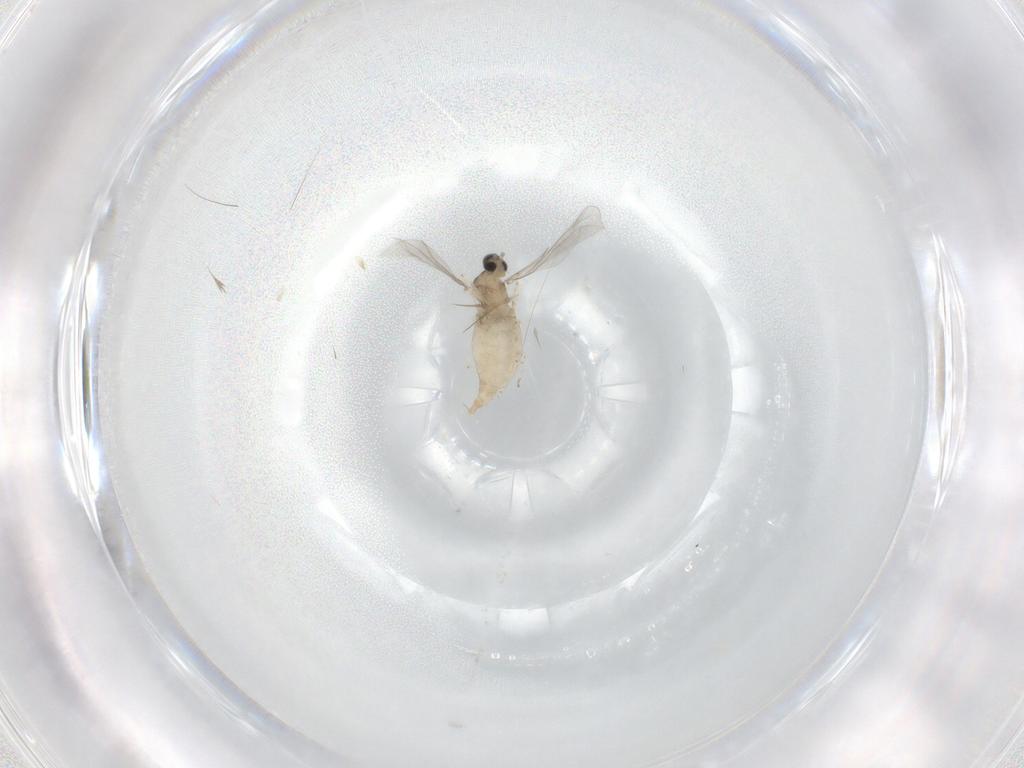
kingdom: Animalia
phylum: Arthropoda
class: Insecta
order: Diptera
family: Cecidomyiidae
